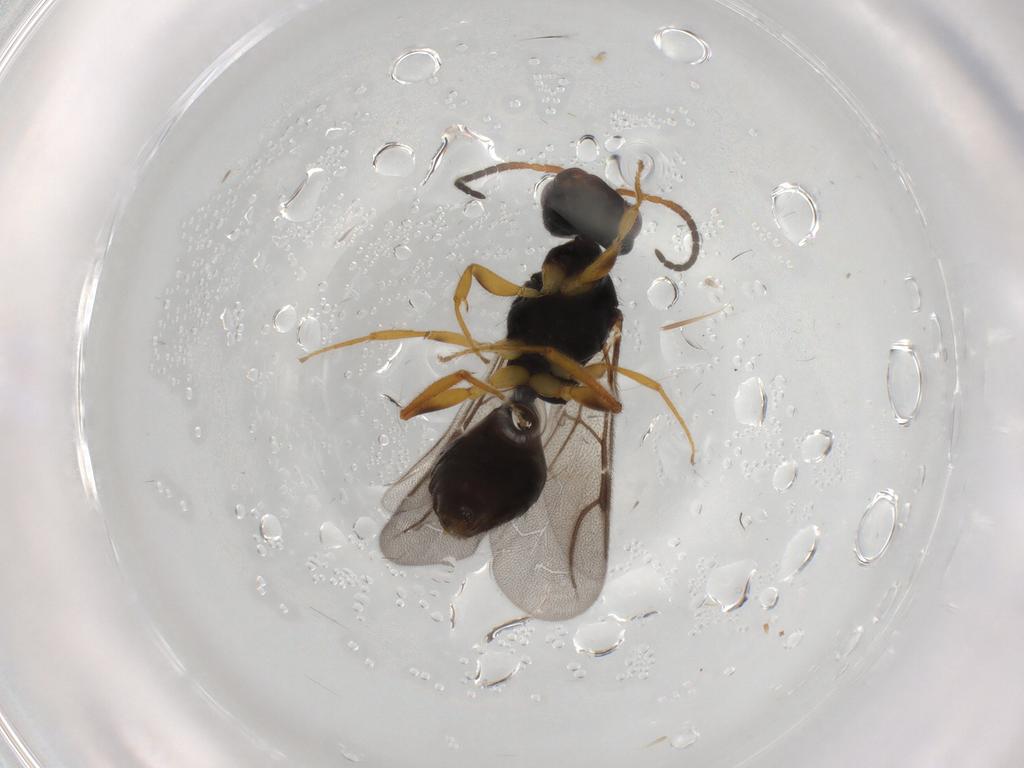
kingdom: Animalia
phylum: Arthropoda
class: Insecta
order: Hymenoptera
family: Bethylidae
